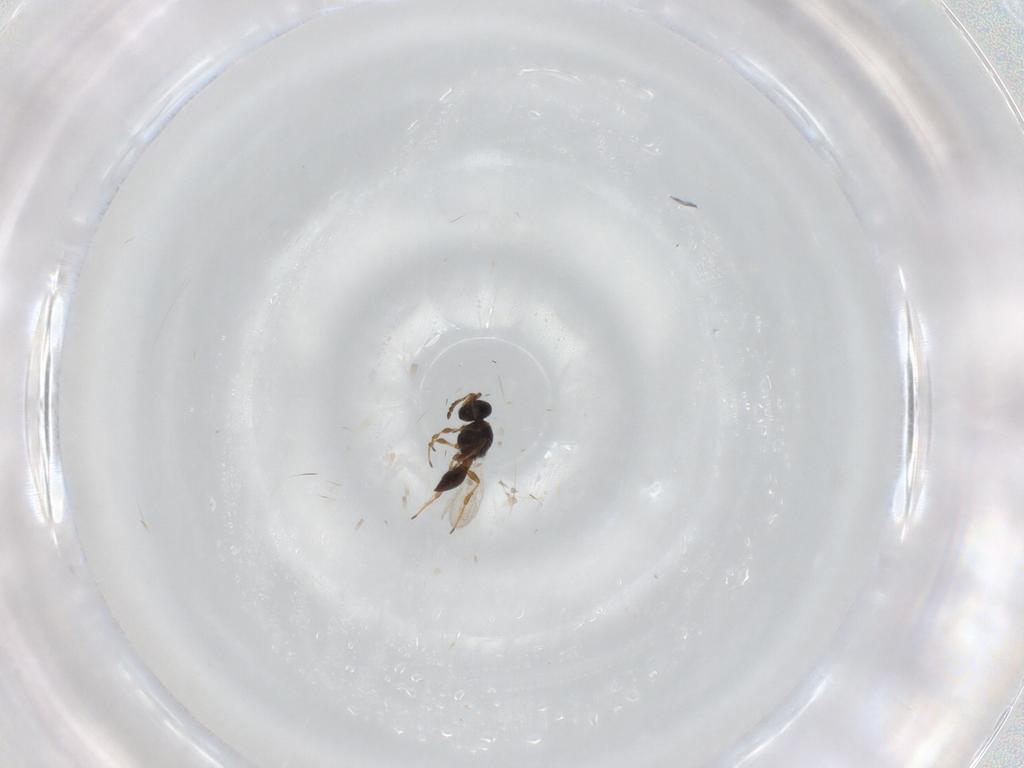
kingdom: Animalia
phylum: Arthropoda
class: Insecta
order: Hymenoptera
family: Platygastridae
